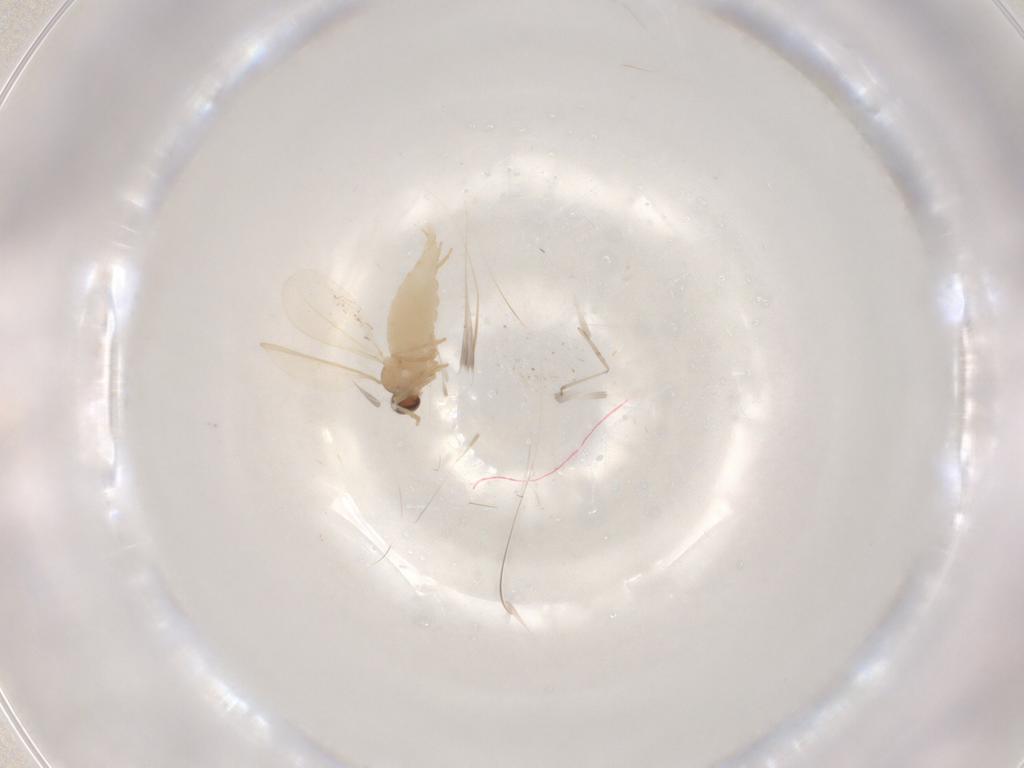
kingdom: Animalia
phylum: Arthropoda
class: Insecta
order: Diptera
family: Cecidomyiidae
